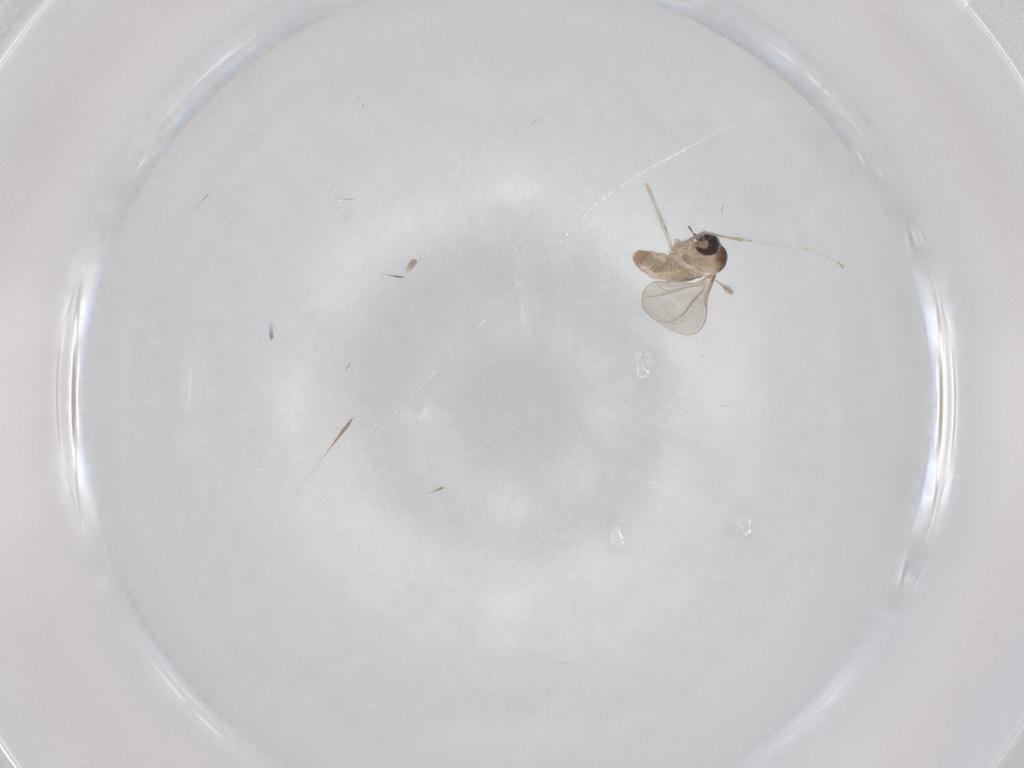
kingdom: Animalia
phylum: Arthropoda
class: Insecta
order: Diptera
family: Cecidomyiidae
